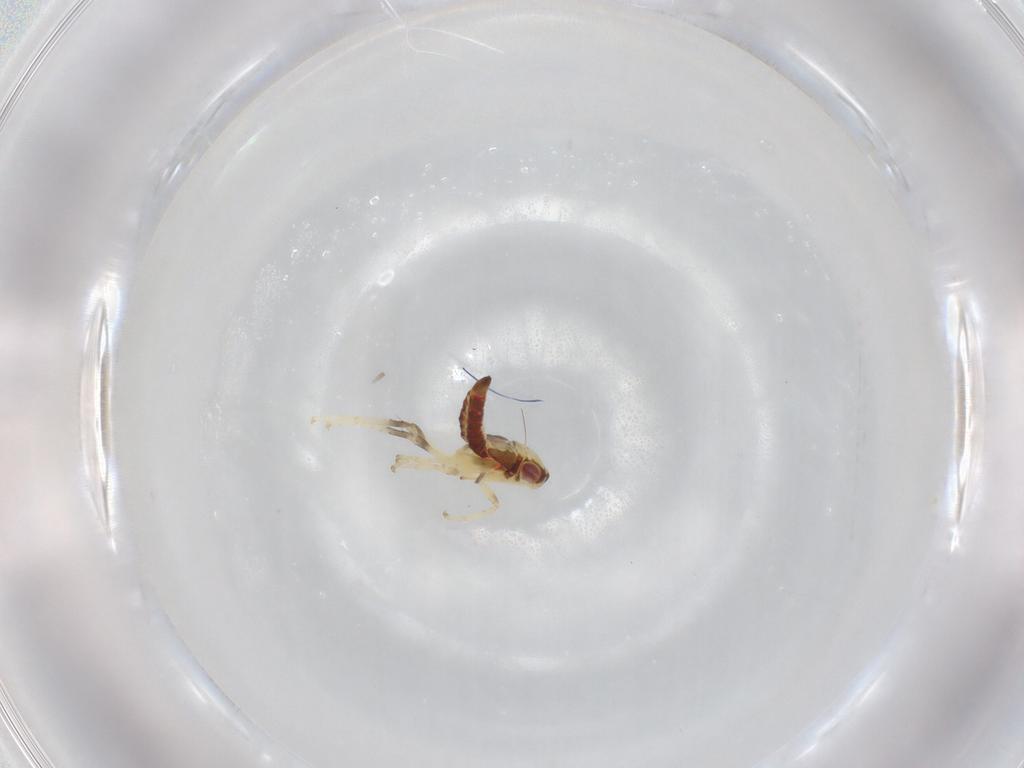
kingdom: Animalia
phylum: Arthropoda
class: Insecta
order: Hemiptera
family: Cicadellidae
